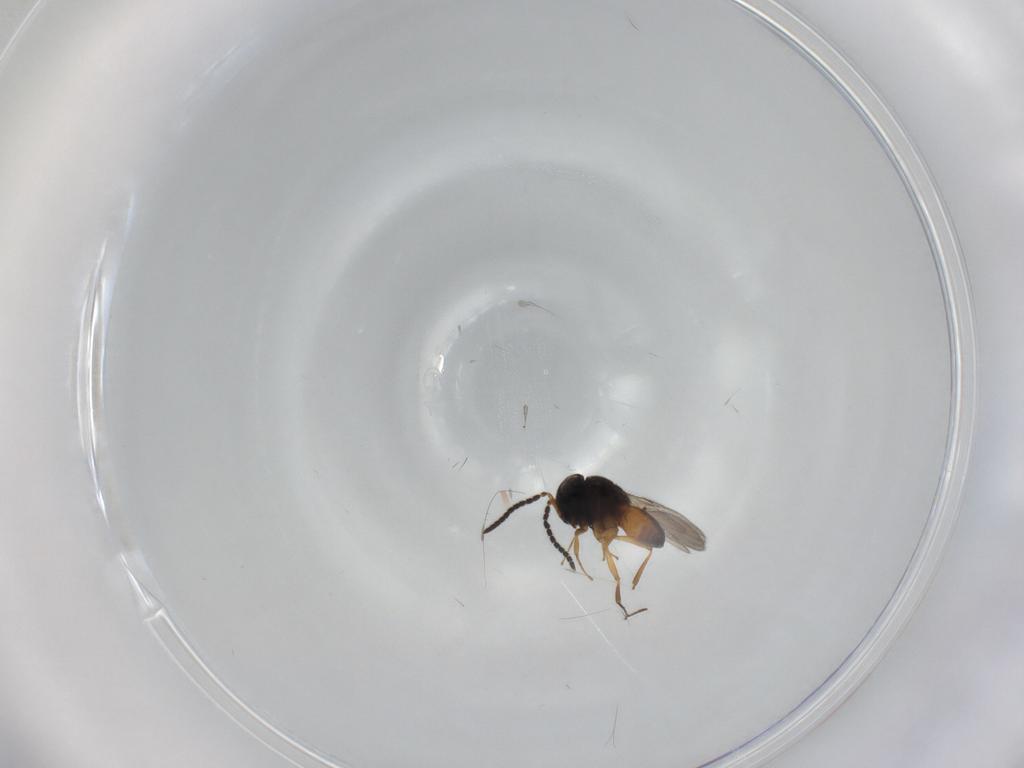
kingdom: Animalia
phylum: Arthropoda
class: Insecta
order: Hymenoptera
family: Scelionidae
